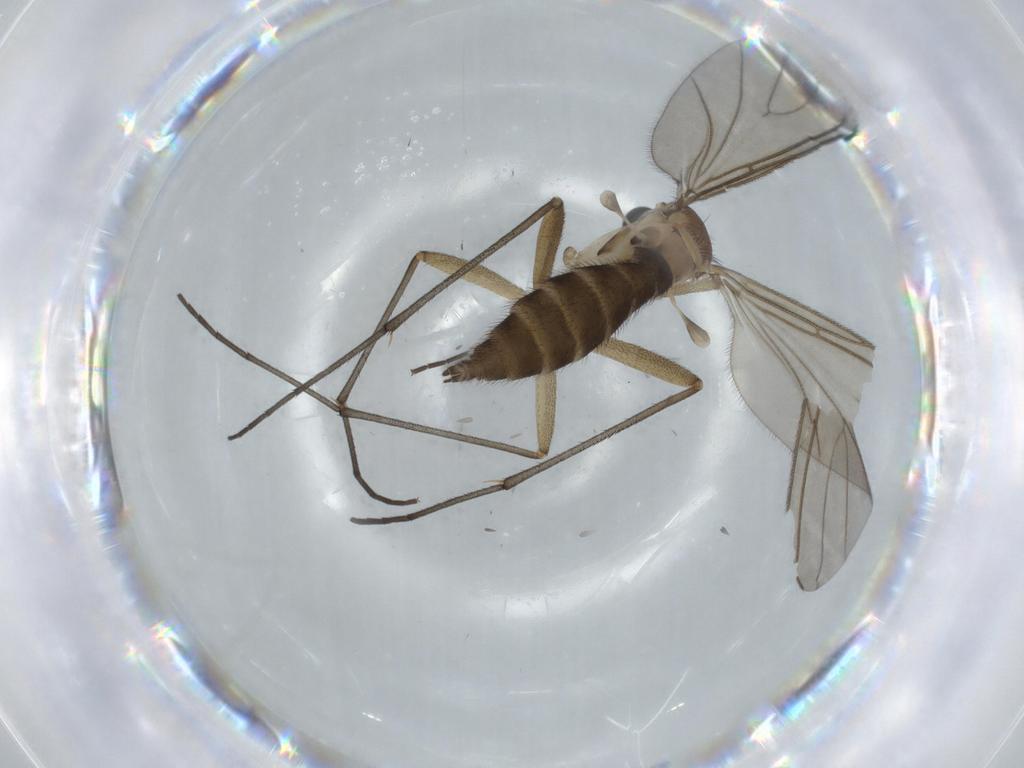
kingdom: Animalia
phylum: Arthropoda
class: Insecta
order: Diptera
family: Sciaridae
